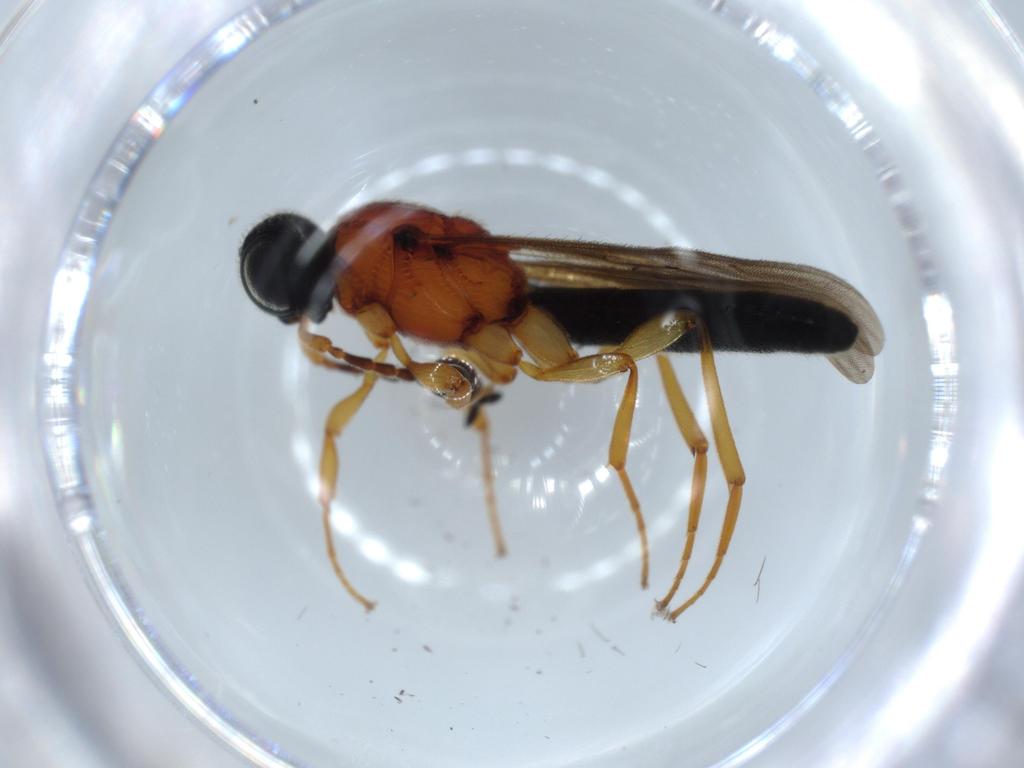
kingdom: Animalia
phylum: Arthropoda
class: Insecta
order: Hymenoptera
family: Scelionidae
